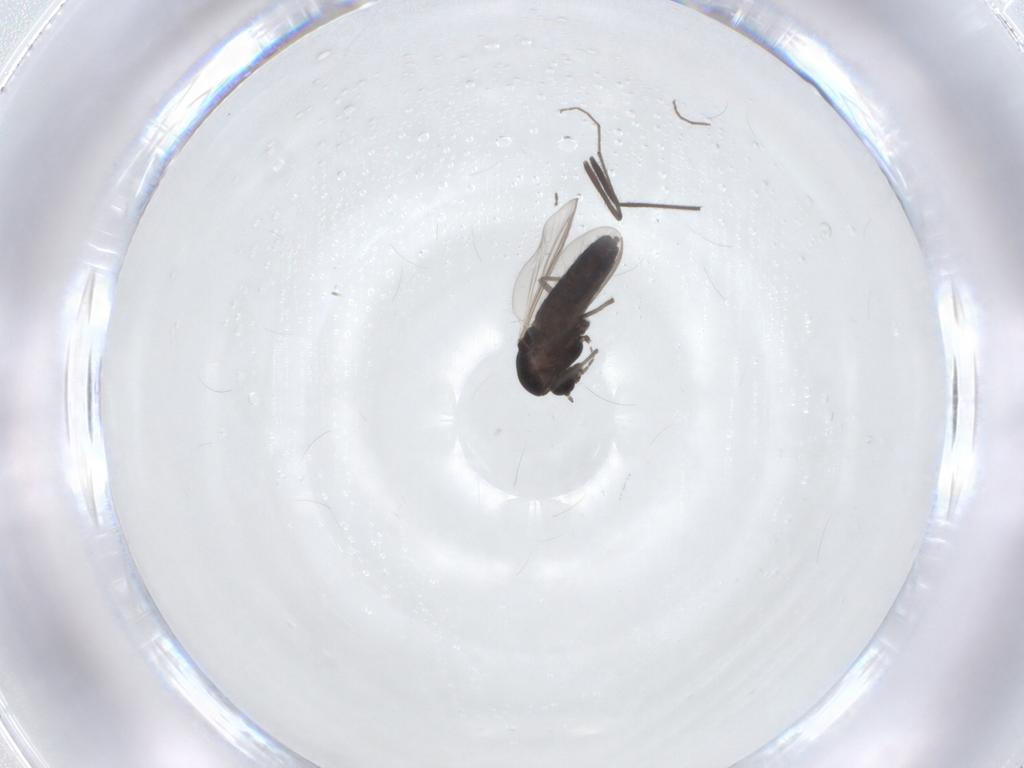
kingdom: Animalia
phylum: Arthropoda
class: Insecta
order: Diptera
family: Chironomidae
